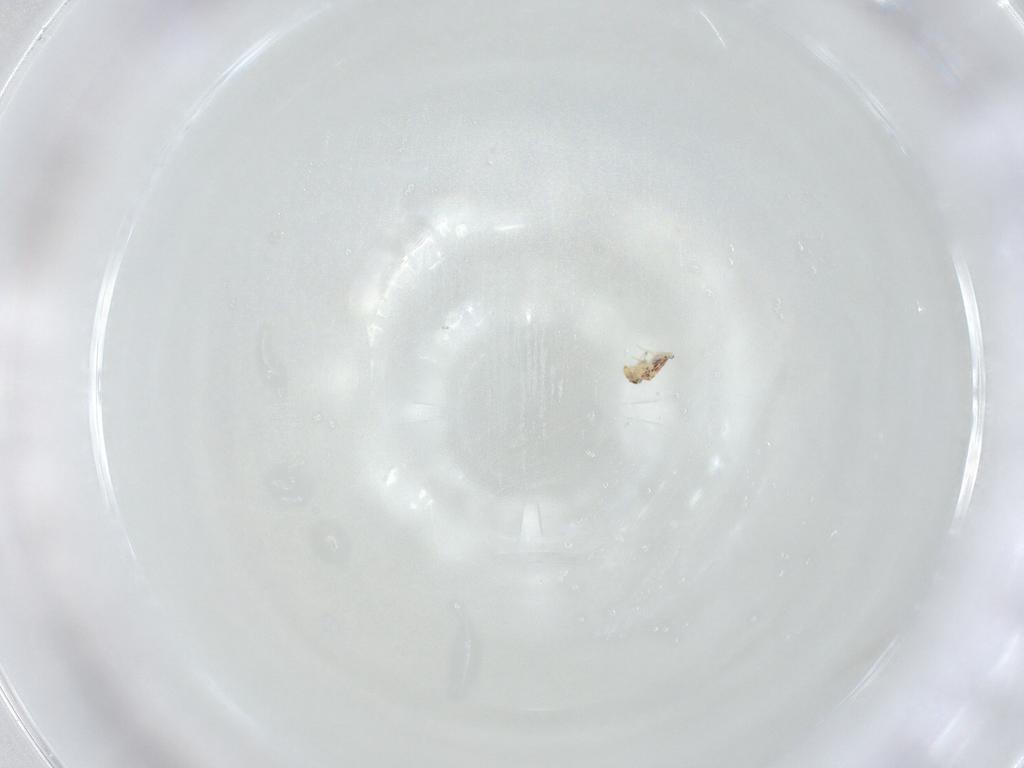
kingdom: Animalia
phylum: Arthropoda
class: Collembola
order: Symphypleona
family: Bourletiellidae
